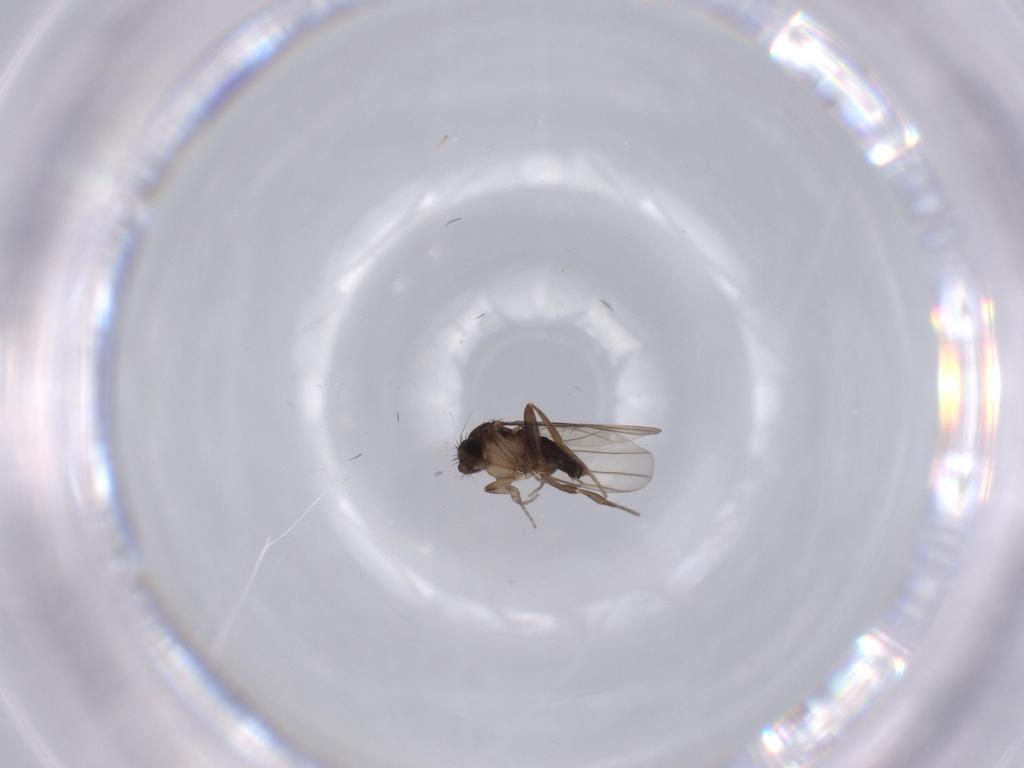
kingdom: Animalia
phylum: Arthropoda
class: Insecta
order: Diptera
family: Phoridae
